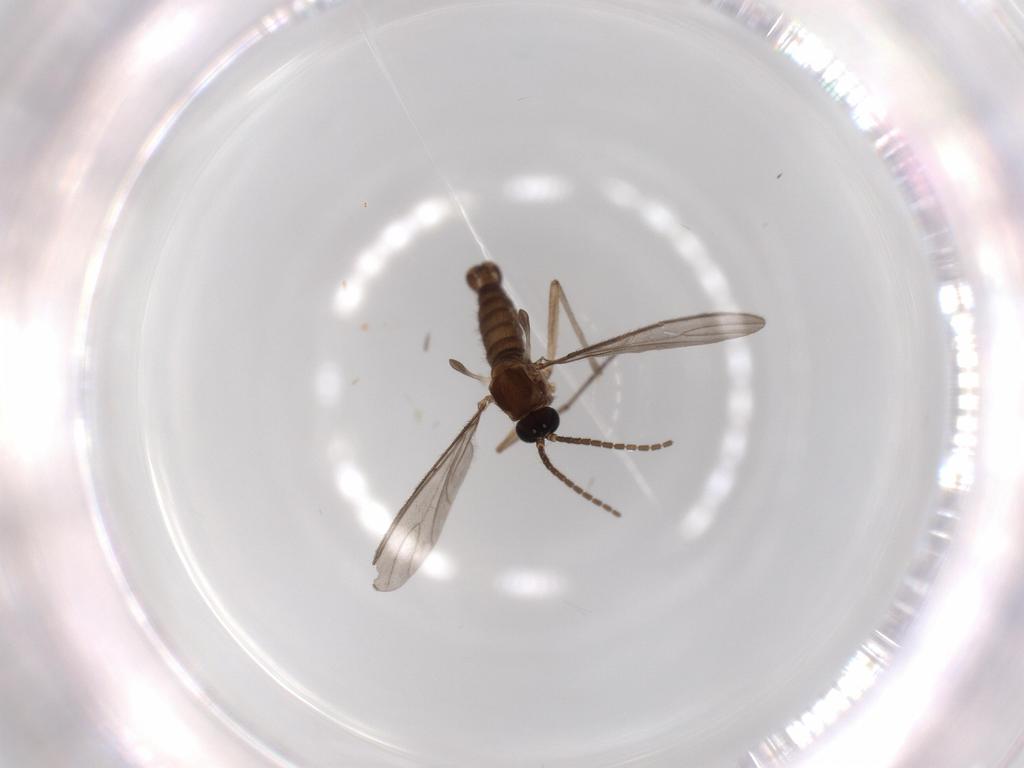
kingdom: Animalia
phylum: Arthropoda
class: Insecta
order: Diptera
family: Sciaridae
